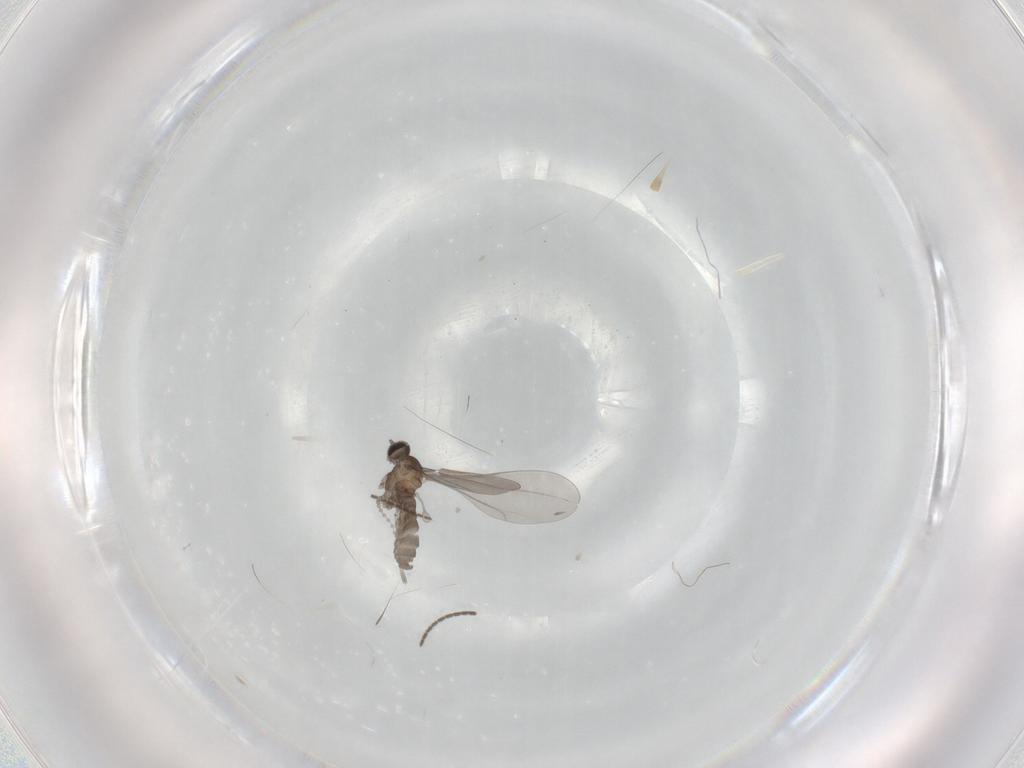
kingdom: Animalia
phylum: Arthropoda
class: Insecta
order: Diptera
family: Cecidomyiidae
